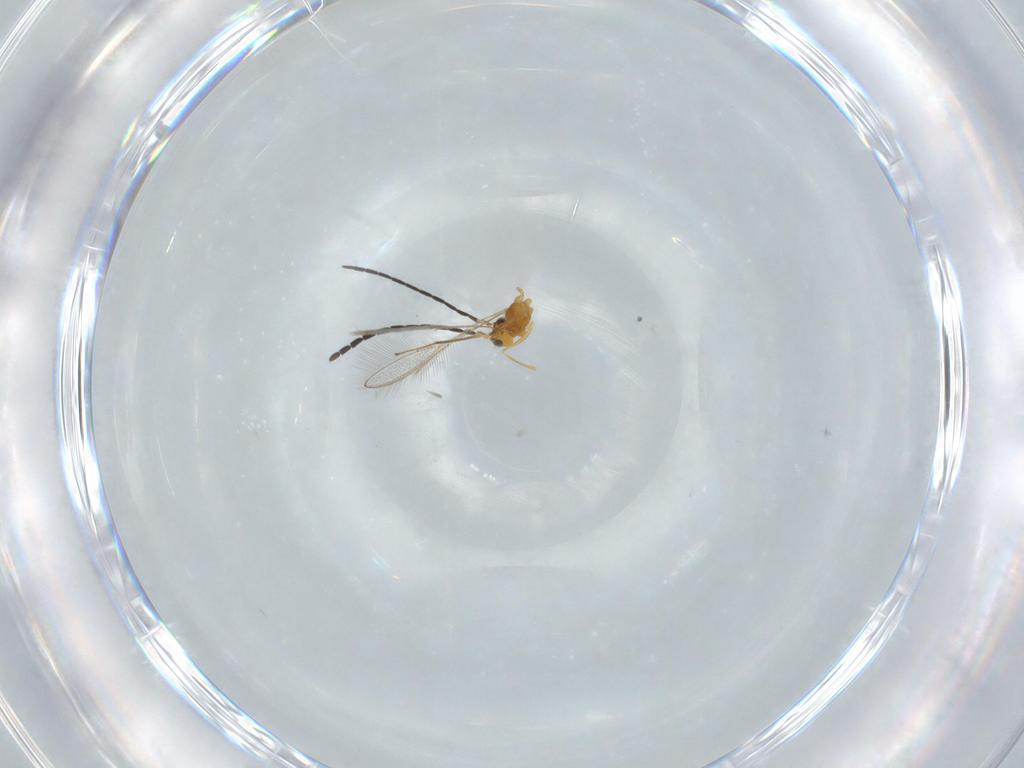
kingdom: Animalia
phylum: Arthropoda
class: Insecta
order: Hymenoptera
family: Mymaridae
